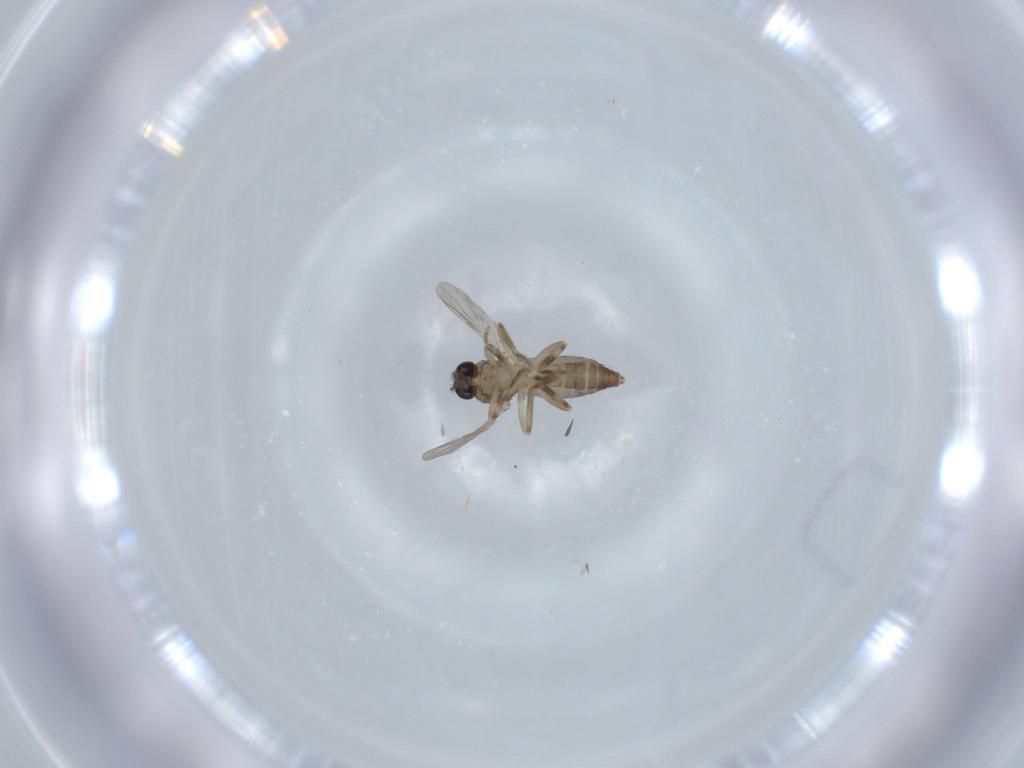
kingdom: Animalia
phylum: Arthropoda
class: Insecta
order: Diptera
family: Ceratopogonidae
